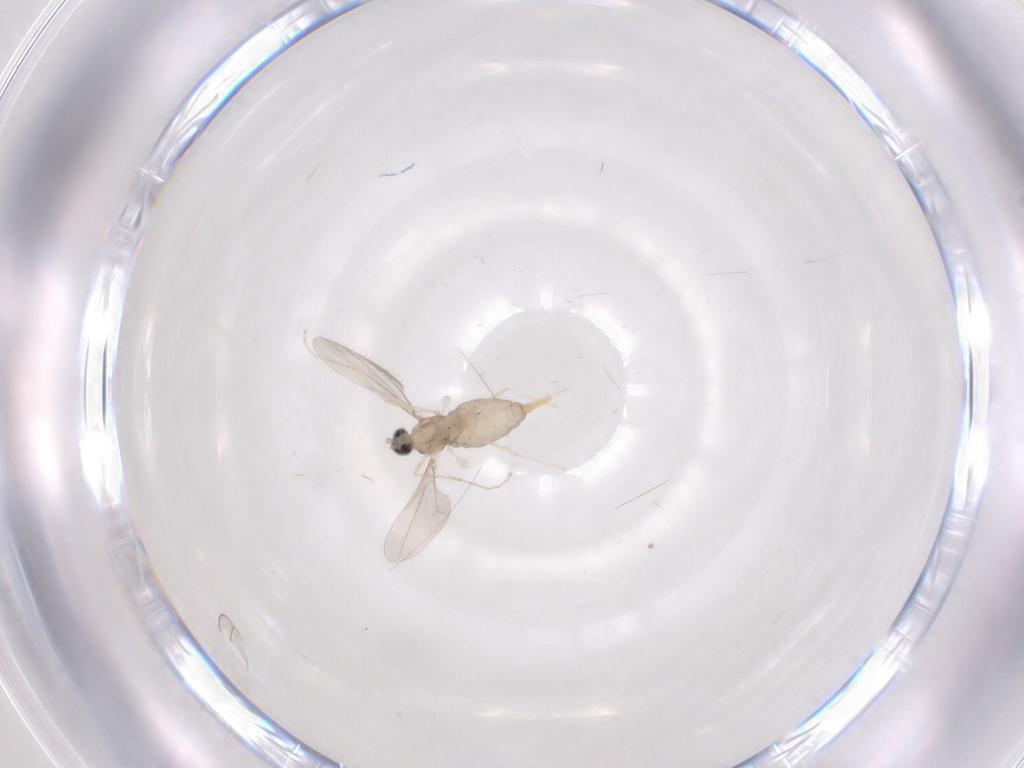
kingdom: Animalia
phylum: Arthropoda
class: Insecta
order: Diptera
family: Cecidomyiidae
